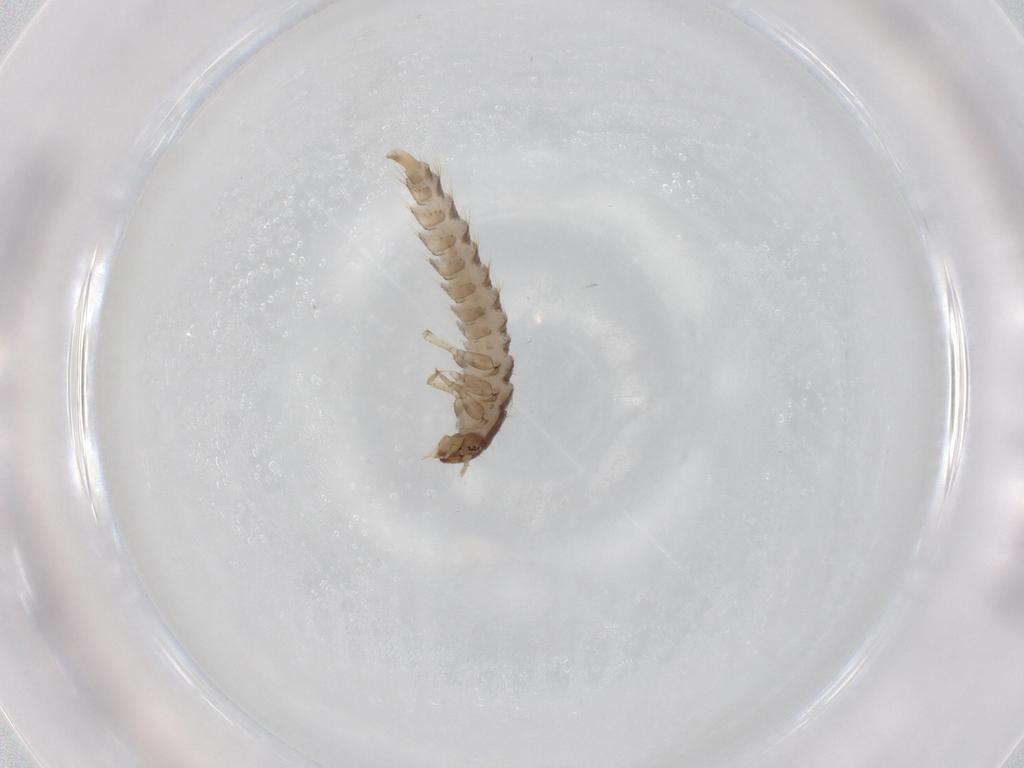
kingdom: Animalia
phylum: Arthropoda
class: Insecta
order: Coleoptera
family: Staphylinidae
